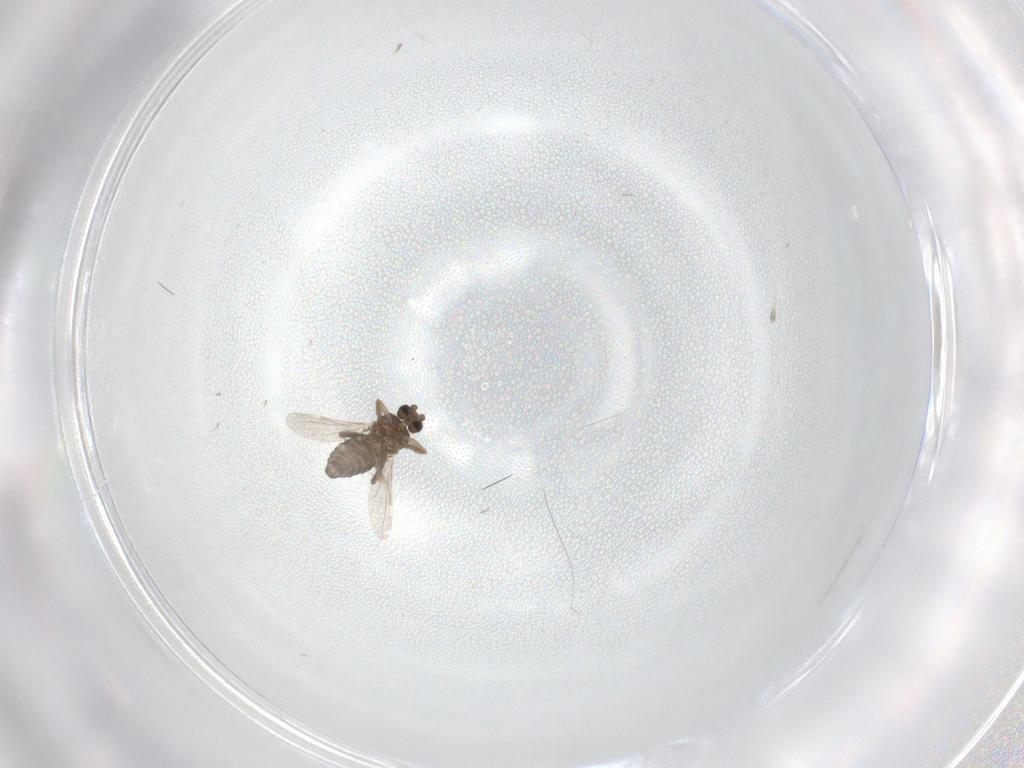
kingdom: Animalia
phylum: Arthropoda
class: Insecta
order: Diptera
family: Ceratopogonidae
